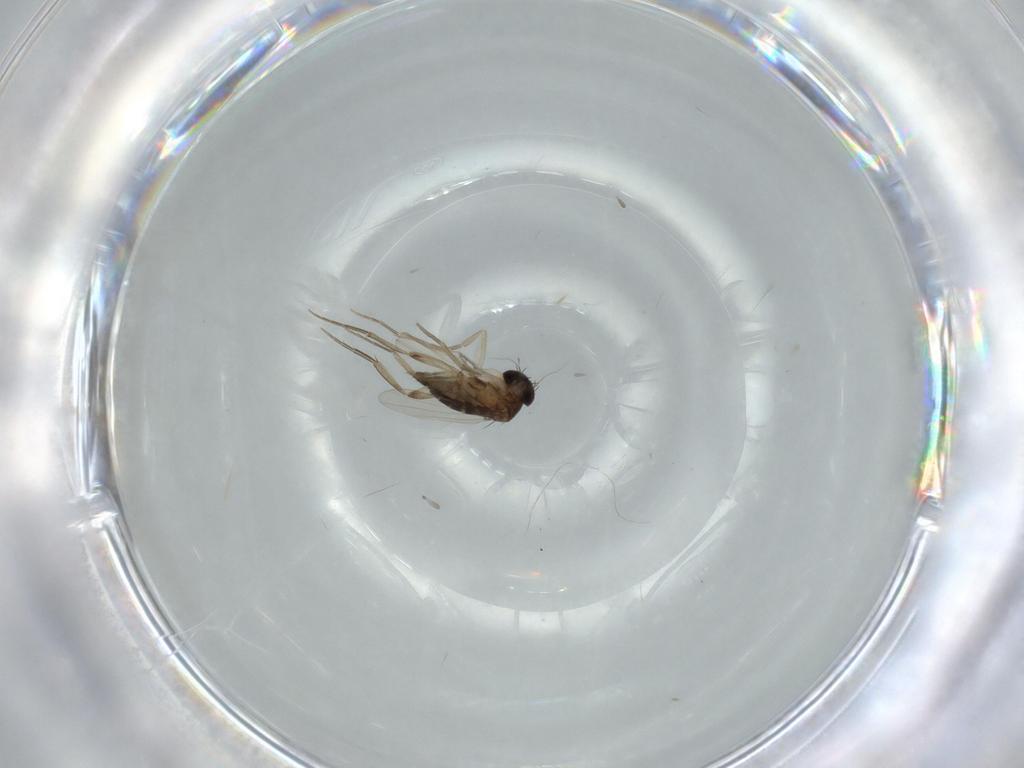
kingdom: Animalia
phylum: Arthropoda
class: Insecta
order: Diptera
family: Phoridae
